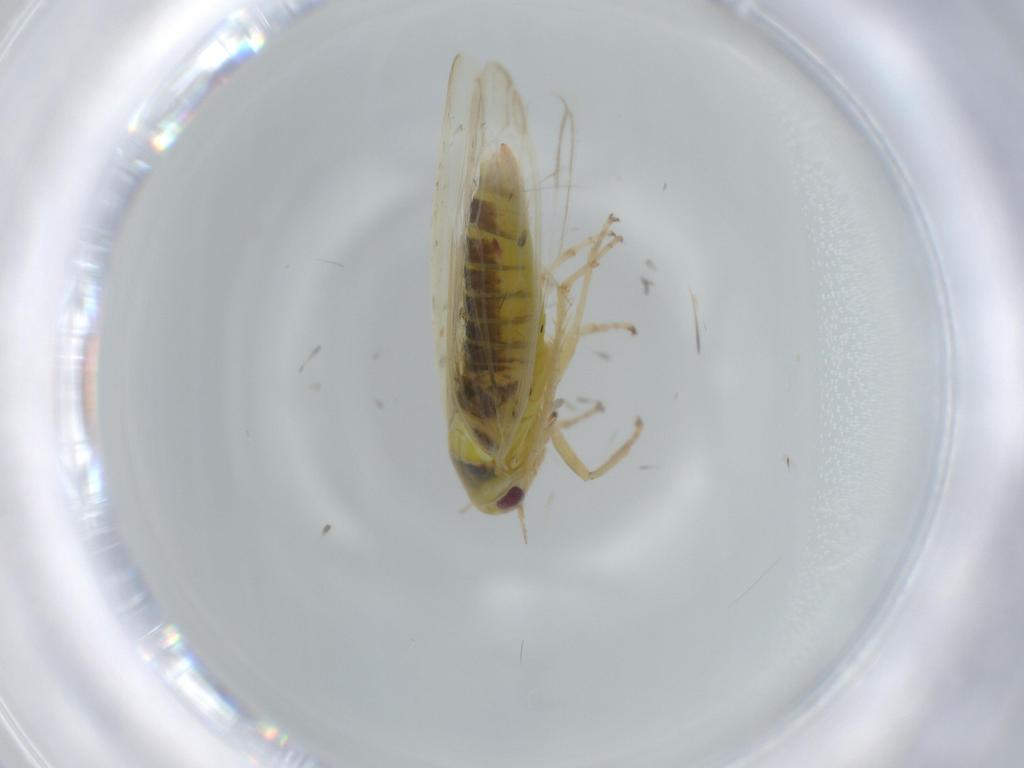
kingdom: Animalia
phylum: Arthropoda
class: Insecta
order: Hemiptera
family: Cicadellidae
